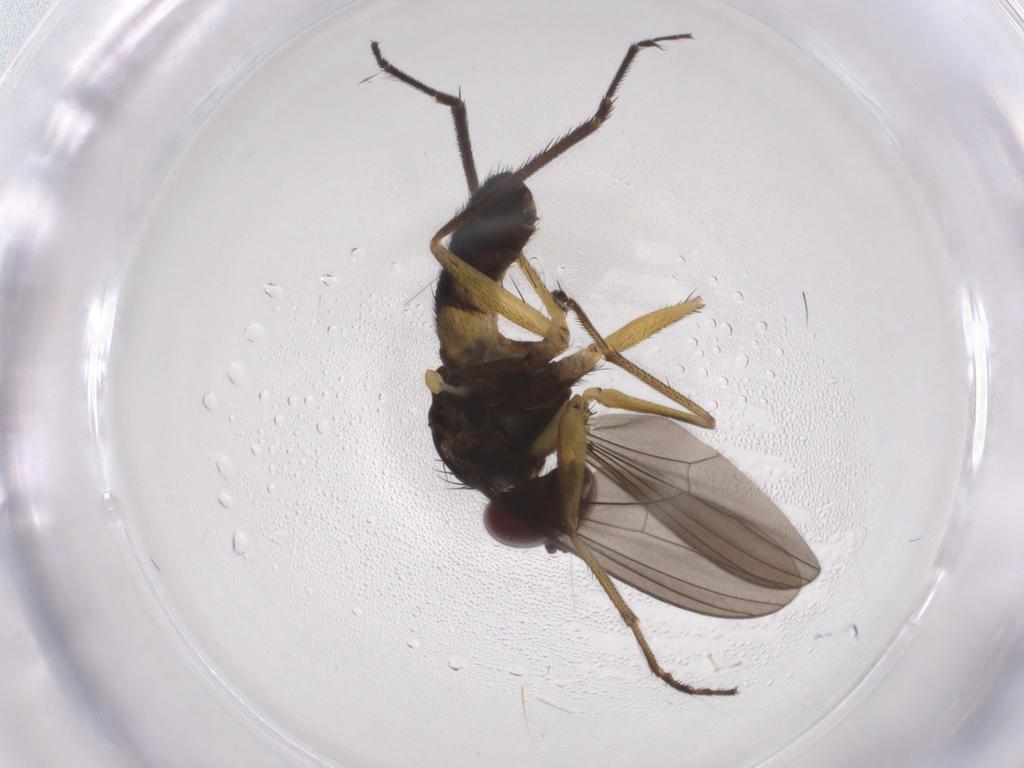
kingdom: Animalia
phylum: Arthropoda
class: Insecta
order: Diptera
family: Dolichopodidae
